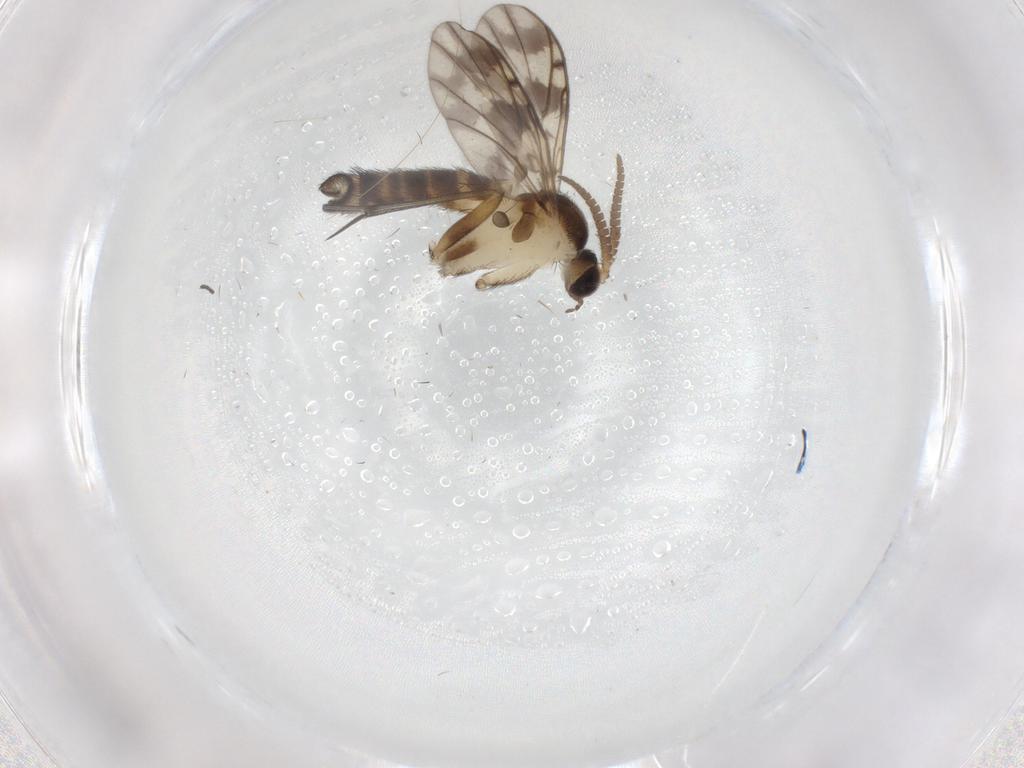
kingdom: Animalia
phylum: Arthropoda
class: Insecta
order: Diptera
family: Keroplatidae
